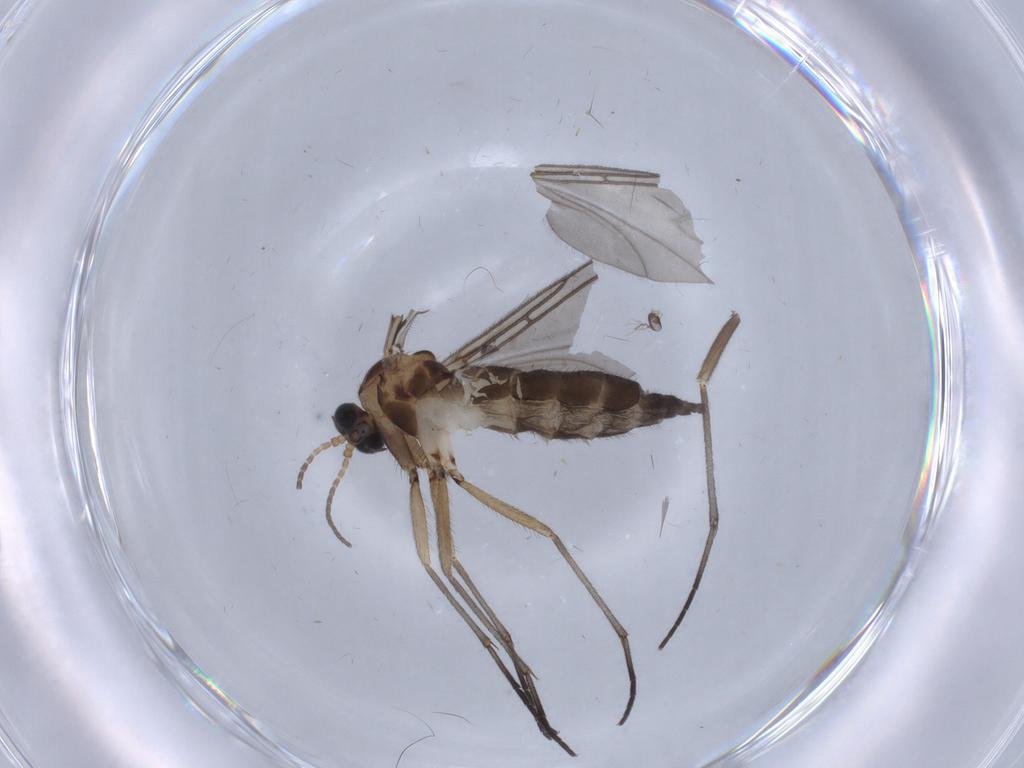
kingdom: Animalia
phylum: Arthropoda
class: Insecta
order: Diptera
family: Sciaridae
